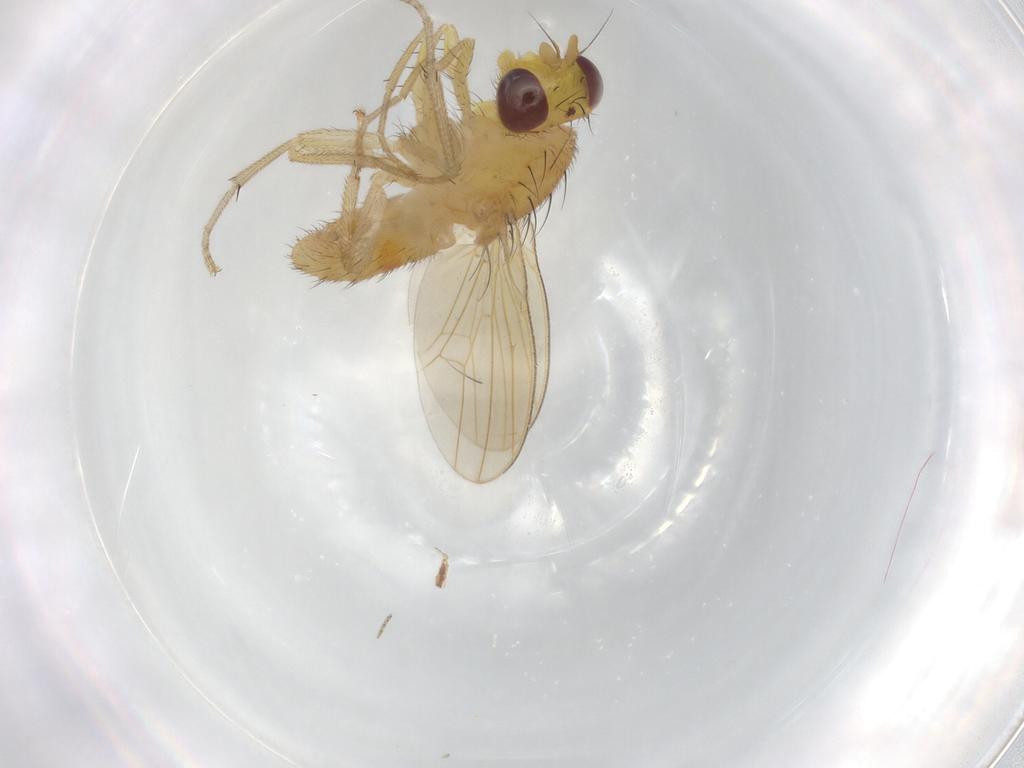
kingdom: Animalia
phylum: Arthropoda
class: Insecta
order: Diptera
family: Lauxaniidae
